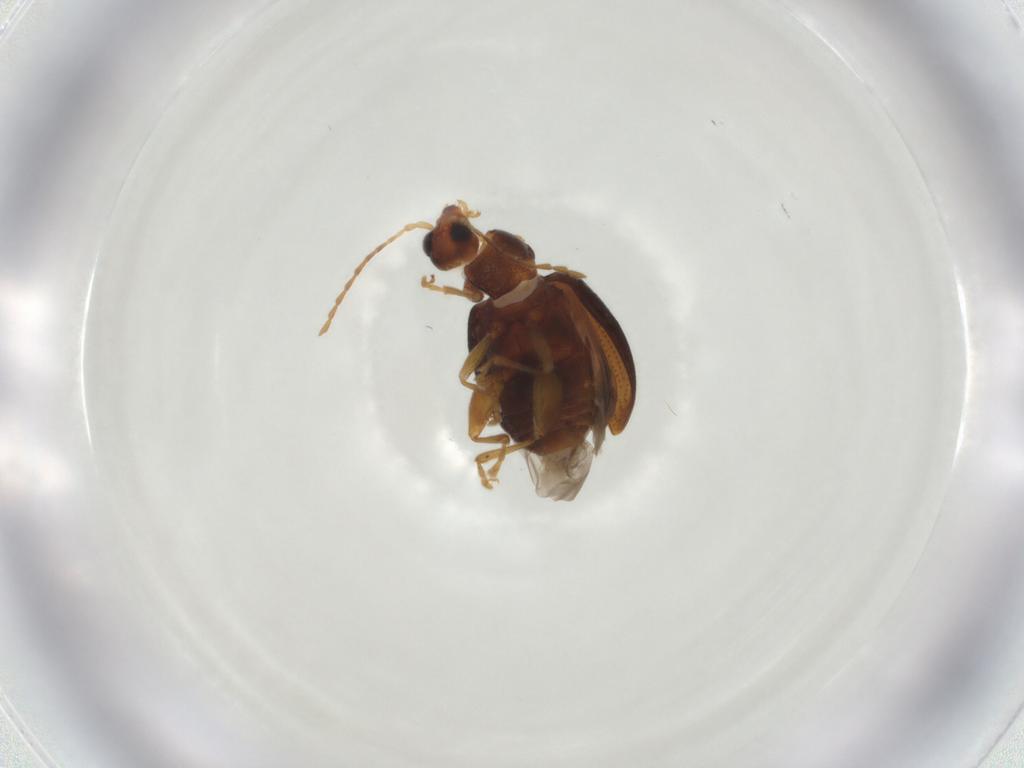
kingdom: Animalia
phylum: Arthropoda
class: Insecta
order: Coleoptera
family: Chrysomelidae
